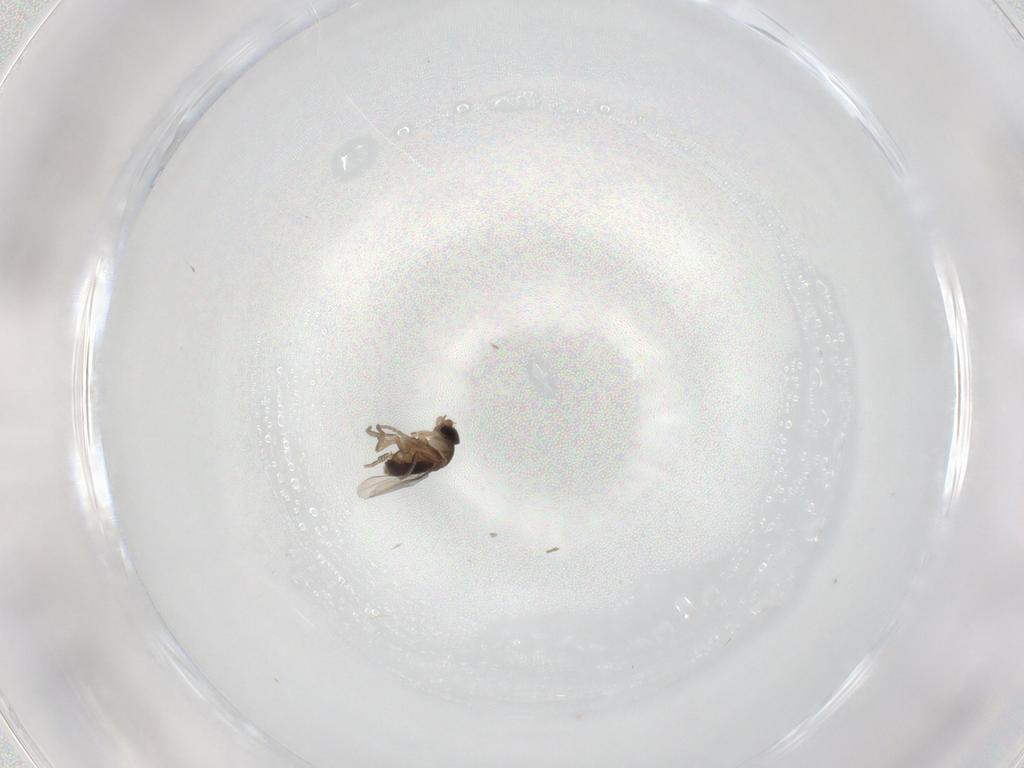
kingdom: Animalia
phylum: Arthropoda
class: Insecta
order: Diptera
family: Phoridae
